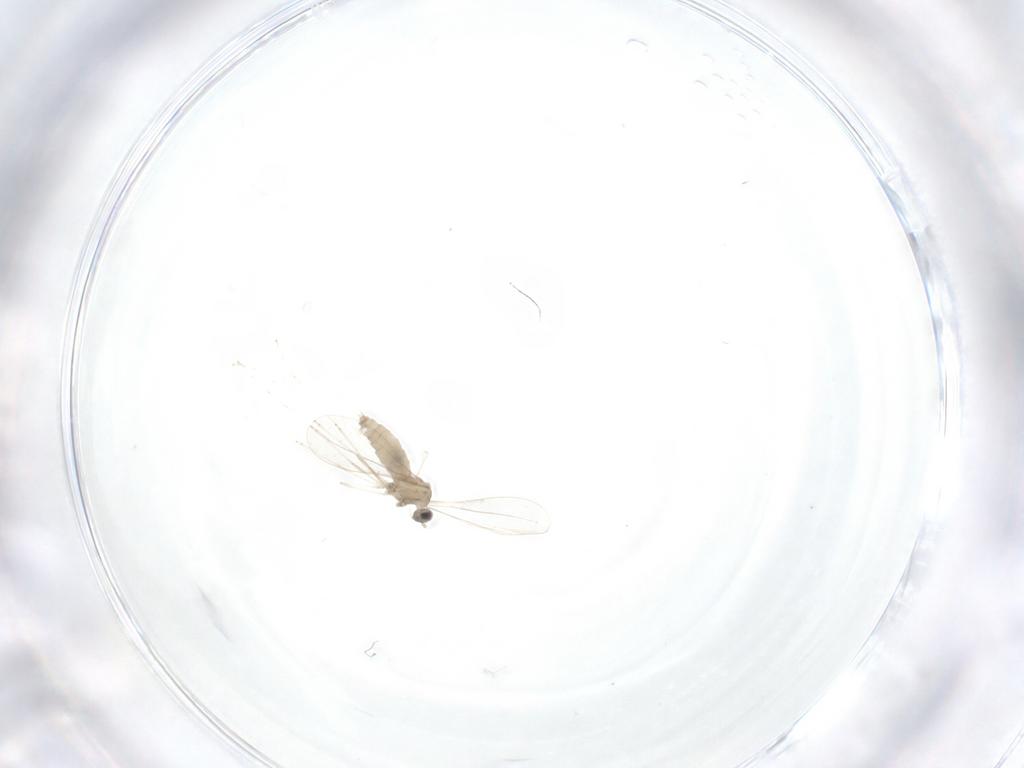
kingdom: Animalia
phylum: Arthropoda
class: Insecta
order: Diptera
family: Cecidomyiidae
